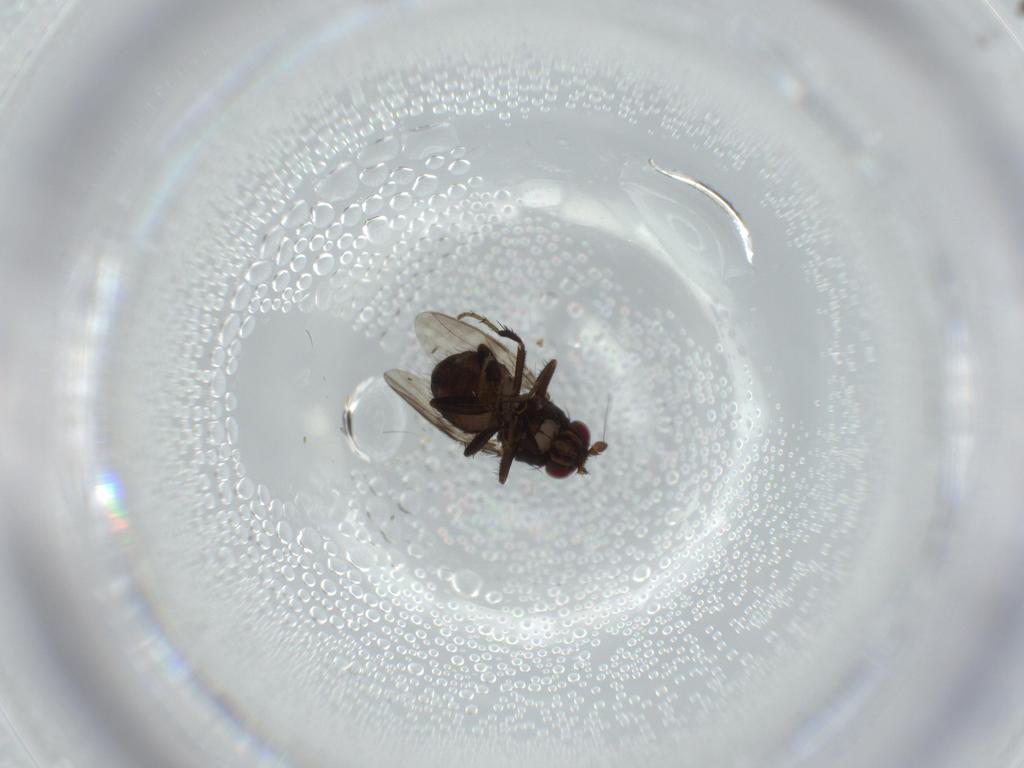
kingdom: Animalia
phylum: Arthropoda
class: Insecta
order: Diptera
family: Sphaeroceridae
